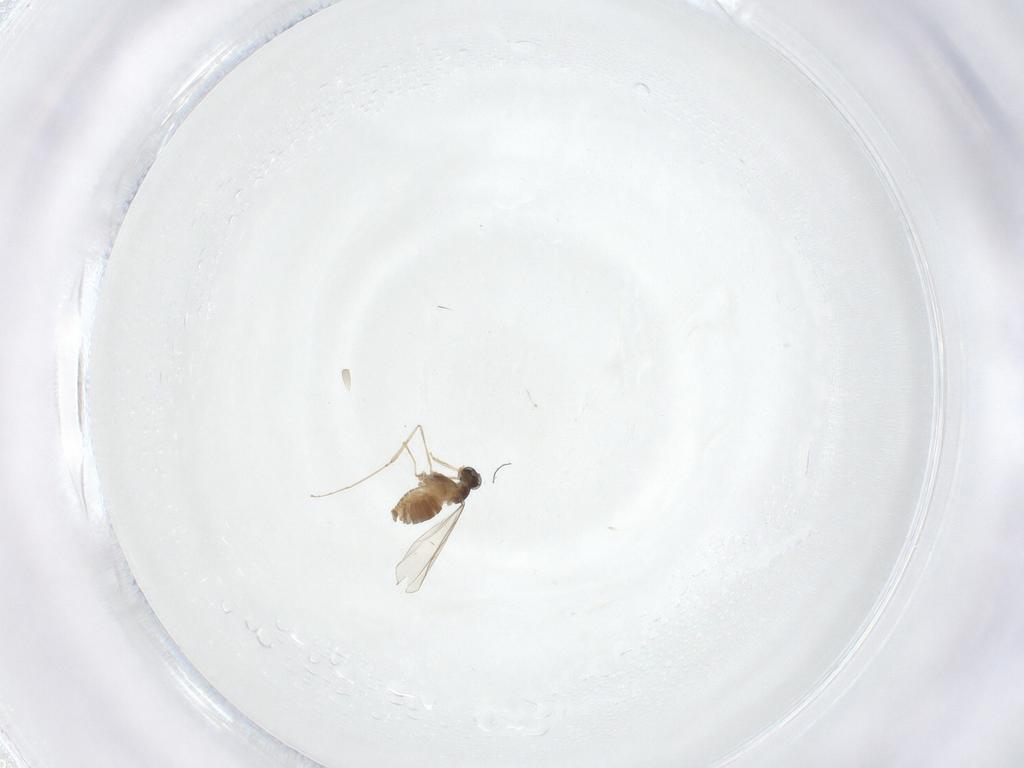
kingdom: Animalia
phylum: Arthropoda
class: Insecta
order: Diptera
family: Cecidomyiidae
